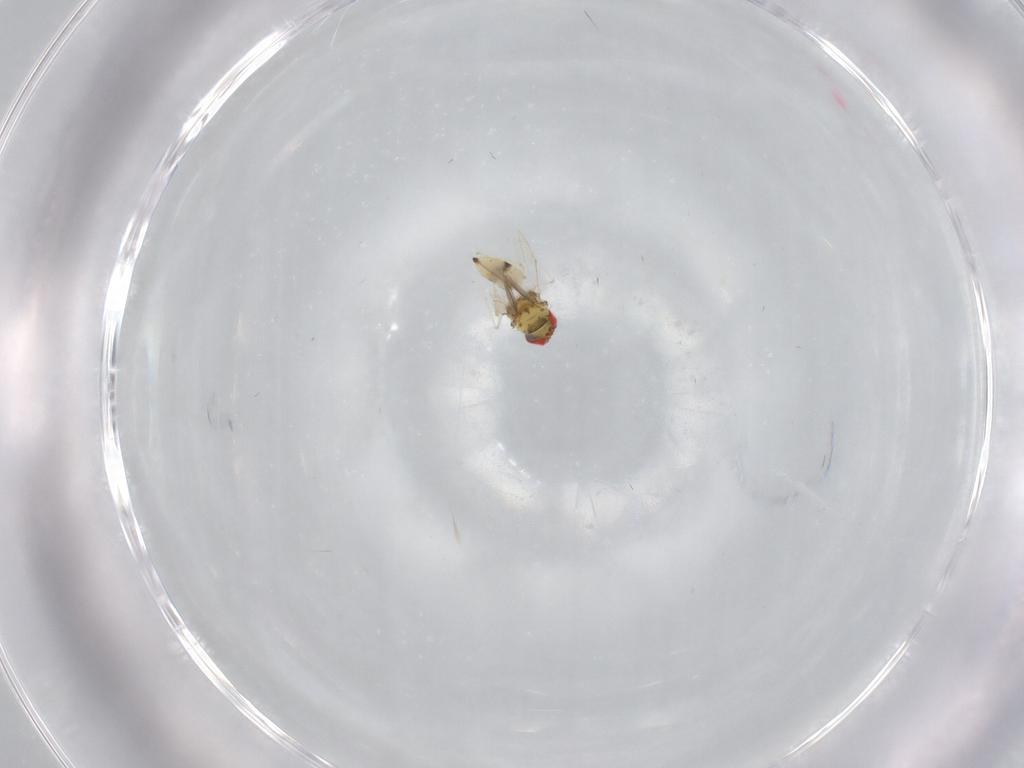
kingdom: Animalia
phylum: Arthropoda
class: Insecta
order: Hymenoptera
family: Eulophidae
